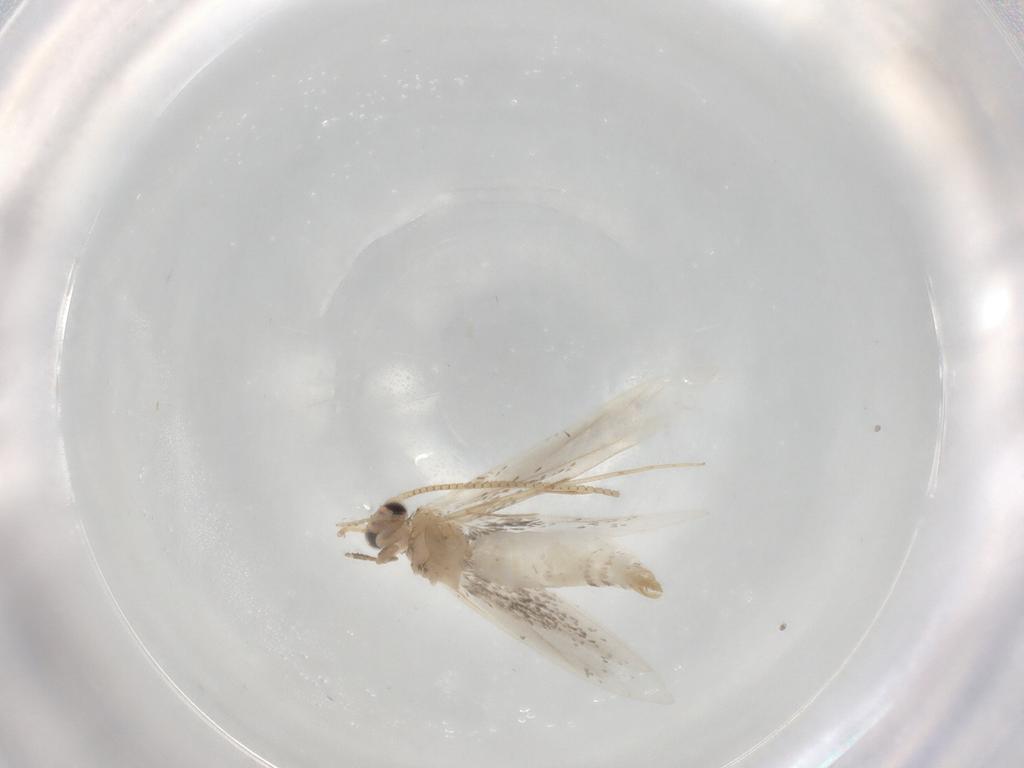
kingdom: Animalia
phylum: Arthropoda
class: Insecta
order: Lepidoptera
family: Tineidae
